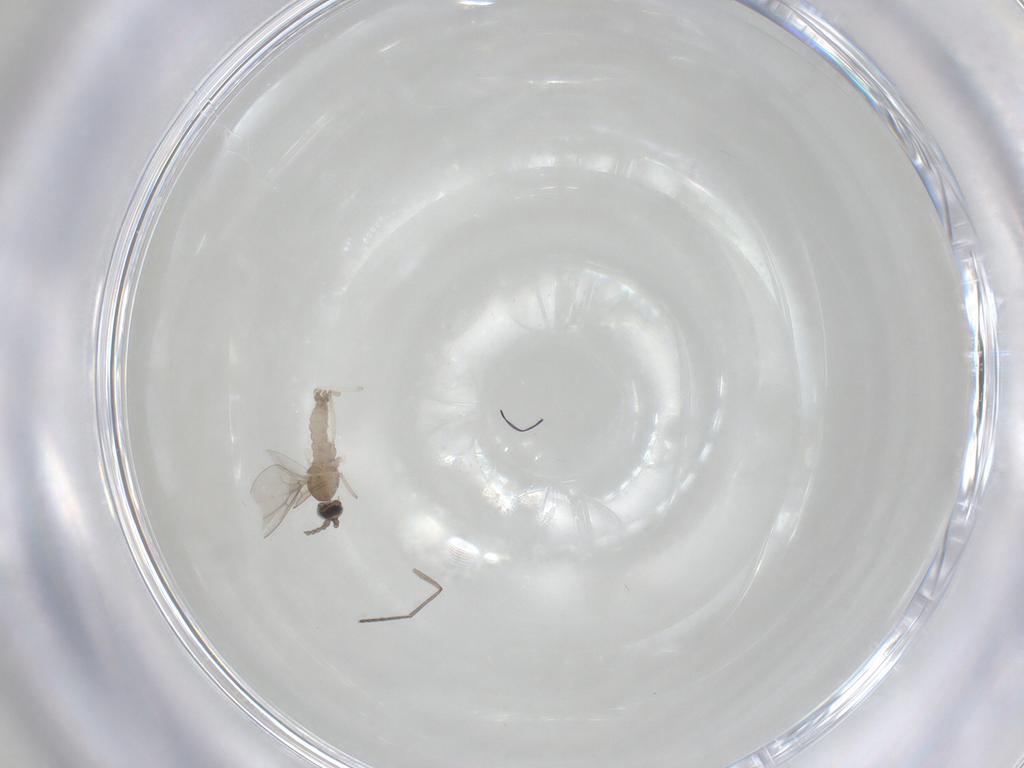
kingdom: Animalia
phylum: Arthropoda
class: Insecta
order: Diptera
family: Cecidomyiidae
